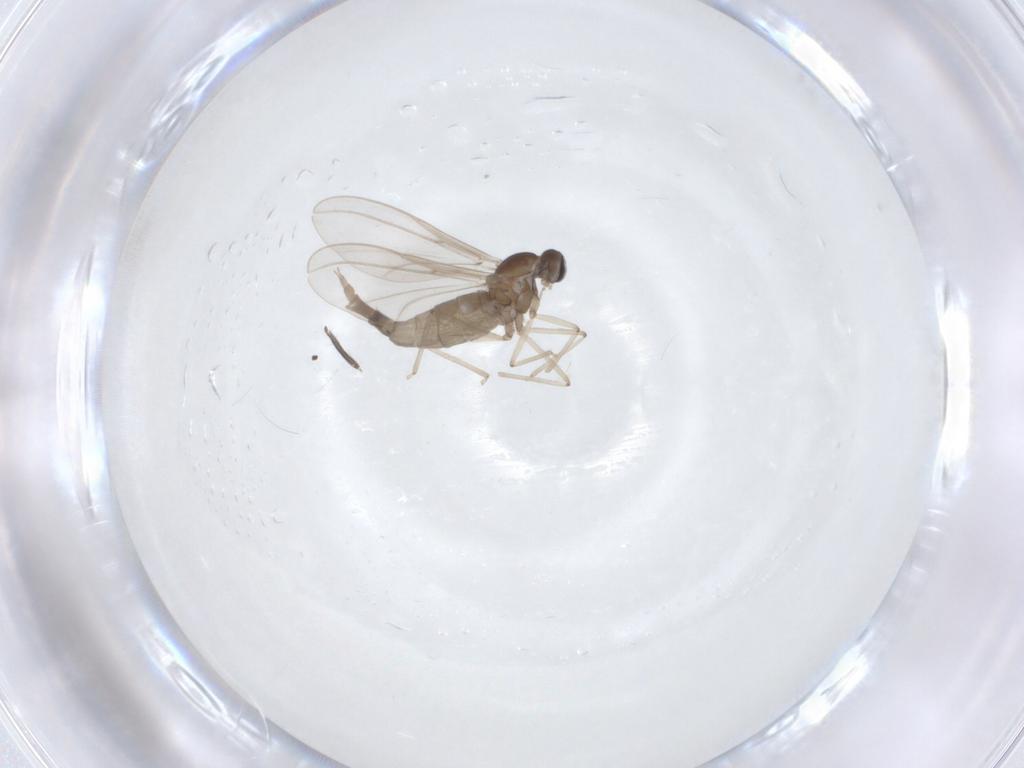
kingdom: Animalia
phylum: Arthropoda
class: Insecta
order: Diptera
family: Cecidomyiidae
